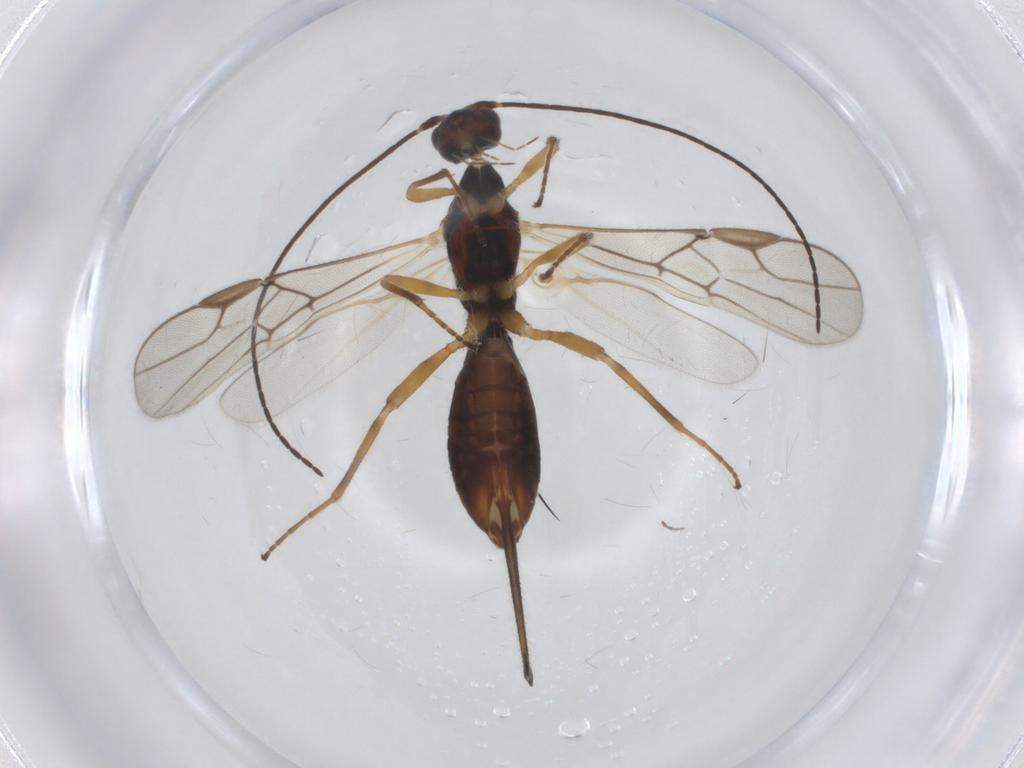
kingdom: Animalia
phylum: Arthropoda
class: Insecta
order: Hymenoptera
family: Braconidae
